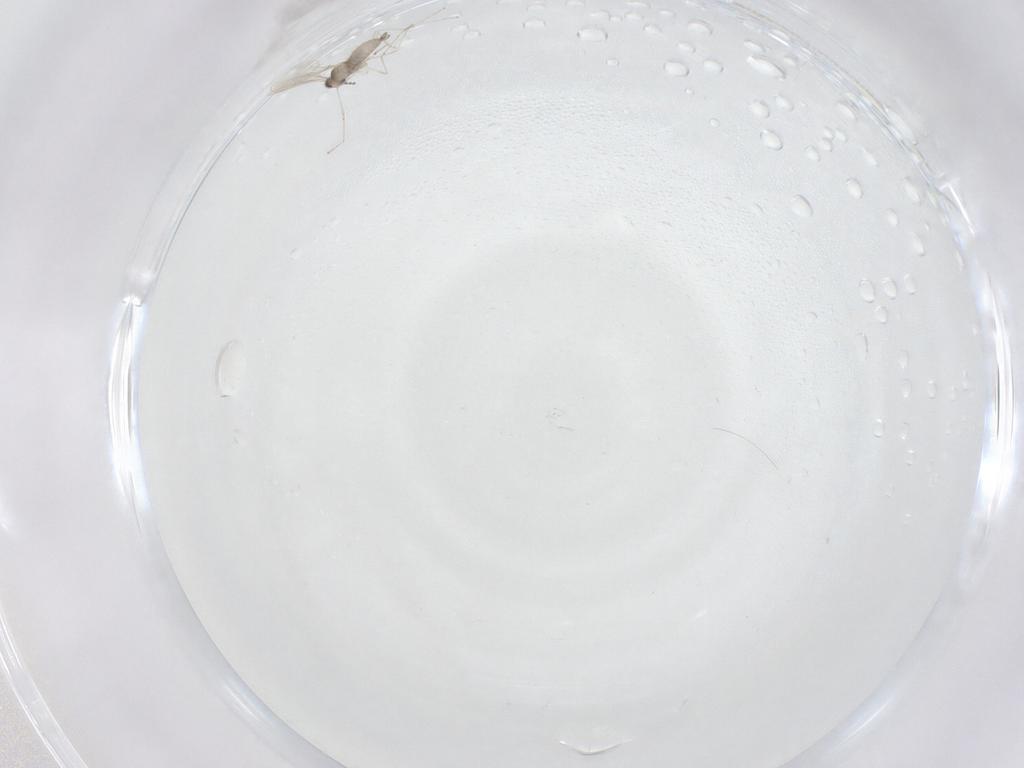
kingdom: Animalia
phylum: Arthropoda
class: Insecta
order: Diptera
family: Cecidomyiidae
